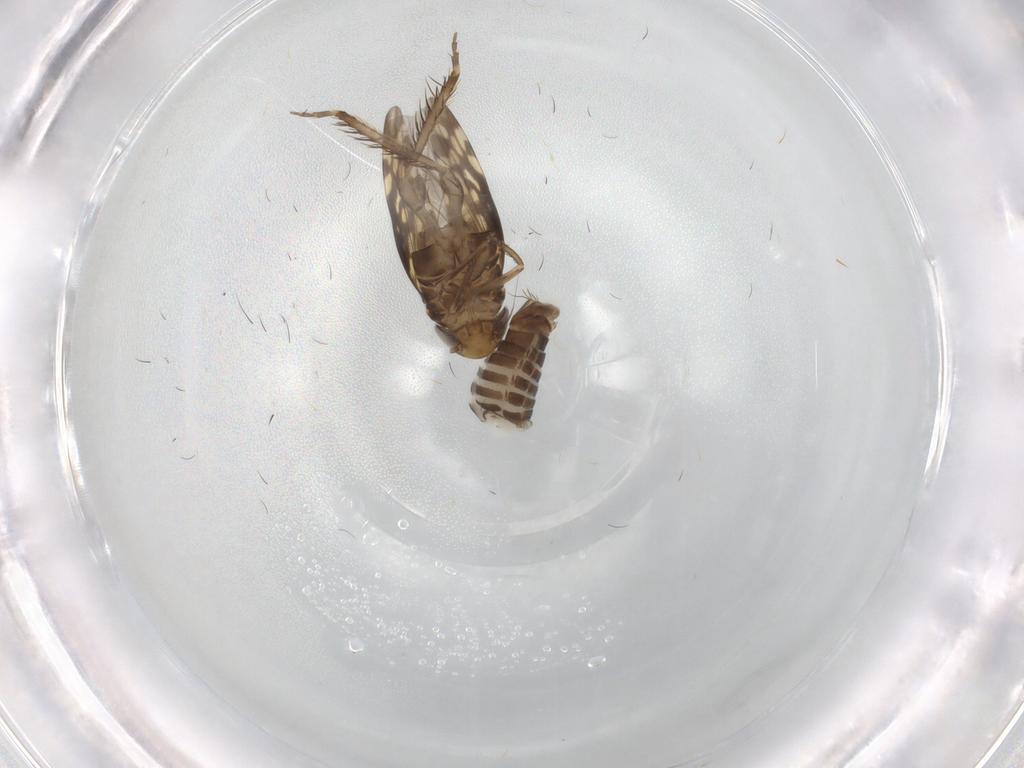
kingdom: Animalia
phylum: Arthropoda
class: Insecta
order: Hemiptera
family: Cicadellidae
